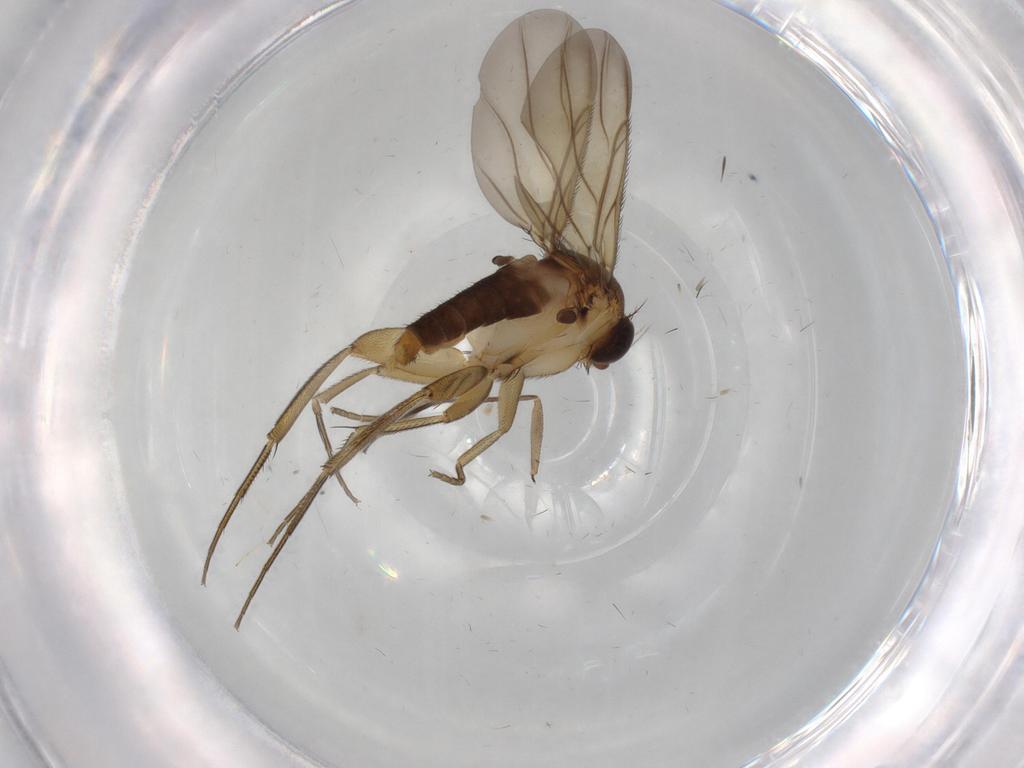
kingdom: Animalia
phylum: Arthropoda
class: Insecta
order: Diptera
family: Phoridae
